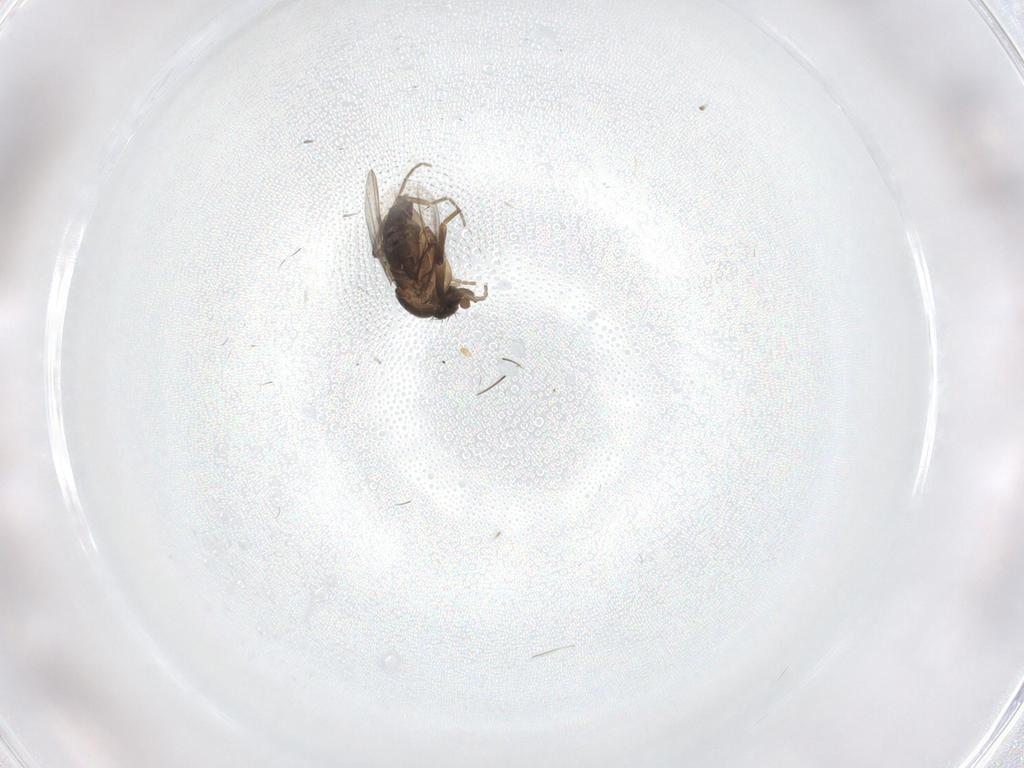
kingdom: Animalia
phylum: Arthropoda
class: Insecta
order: Diptera
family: Phoridae
